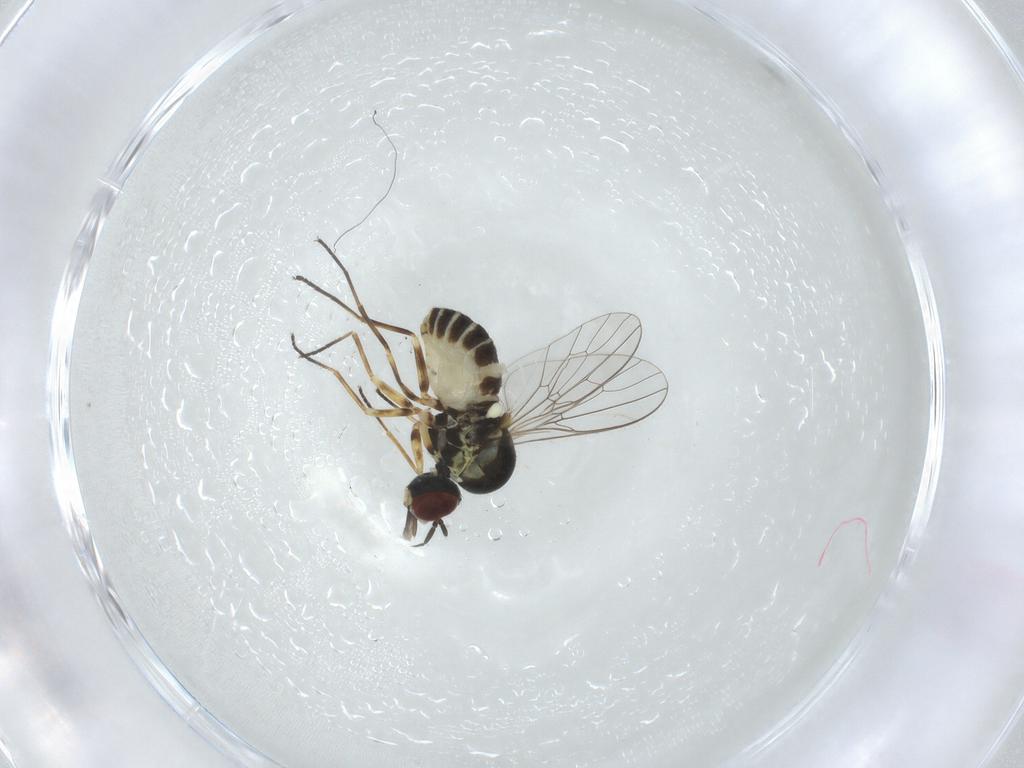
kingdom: Animalia
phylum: Arthropoda
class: Insecta
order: Diptera
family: Bombyliidae
